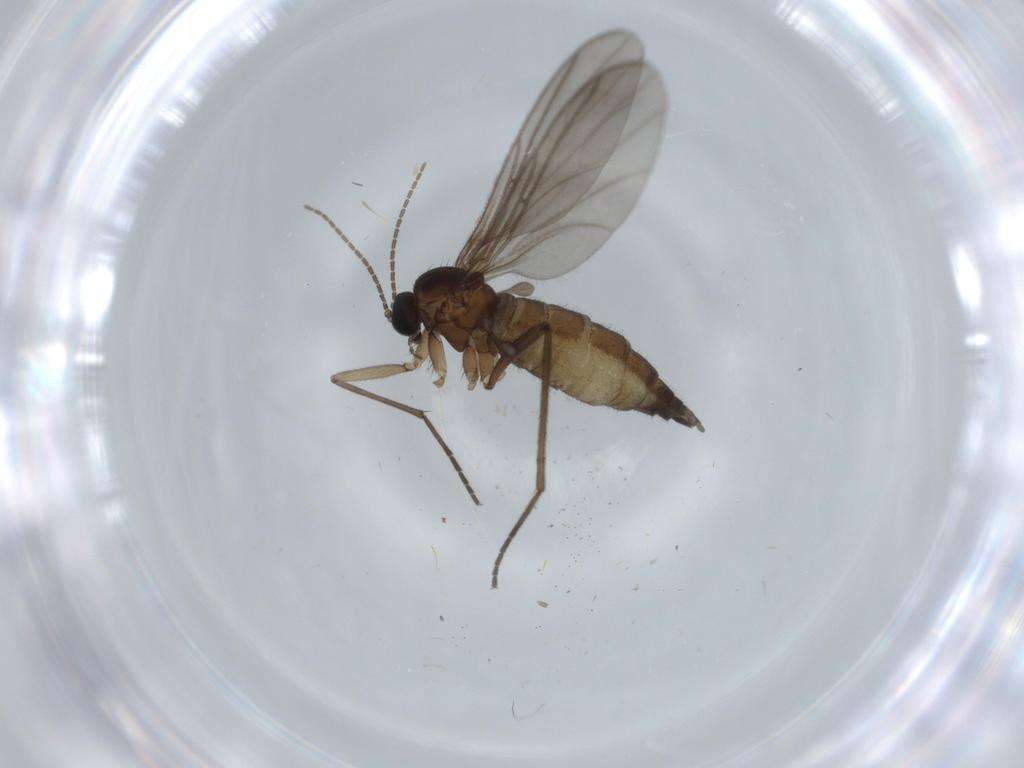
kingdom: Animalia
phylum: Arthropoda
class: Insecta
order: Diptera
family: Sciaridae
